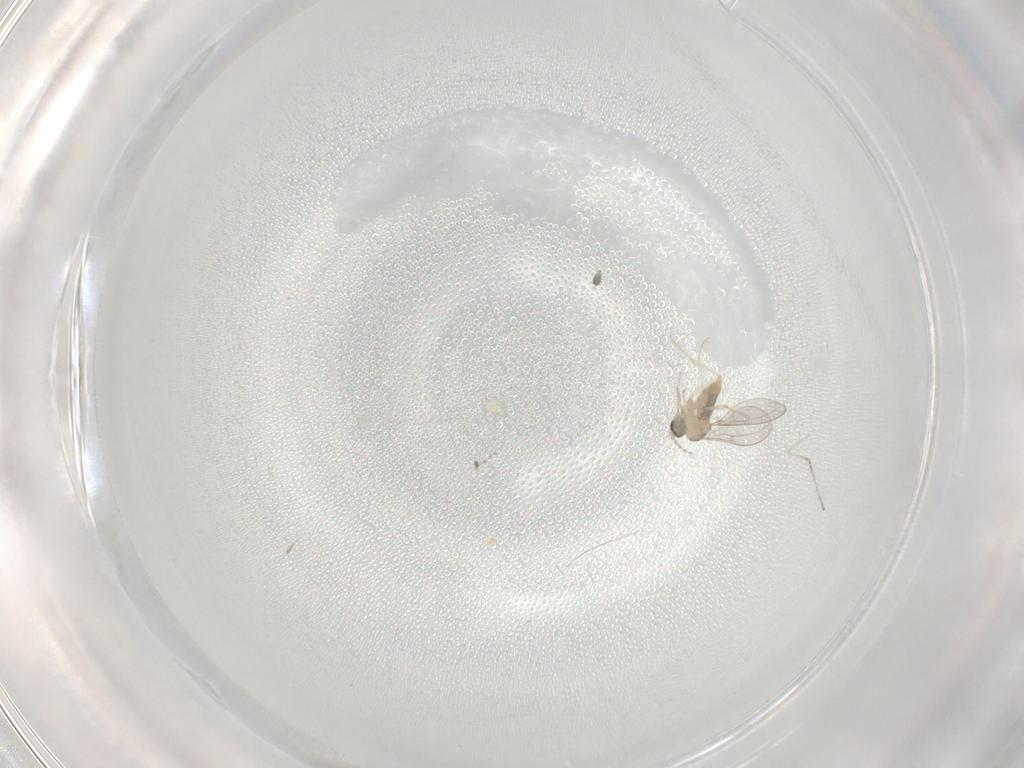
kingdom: Animalia
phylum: Arthropoda
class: Insecta
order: Diptera
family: Cecidomyiidae
